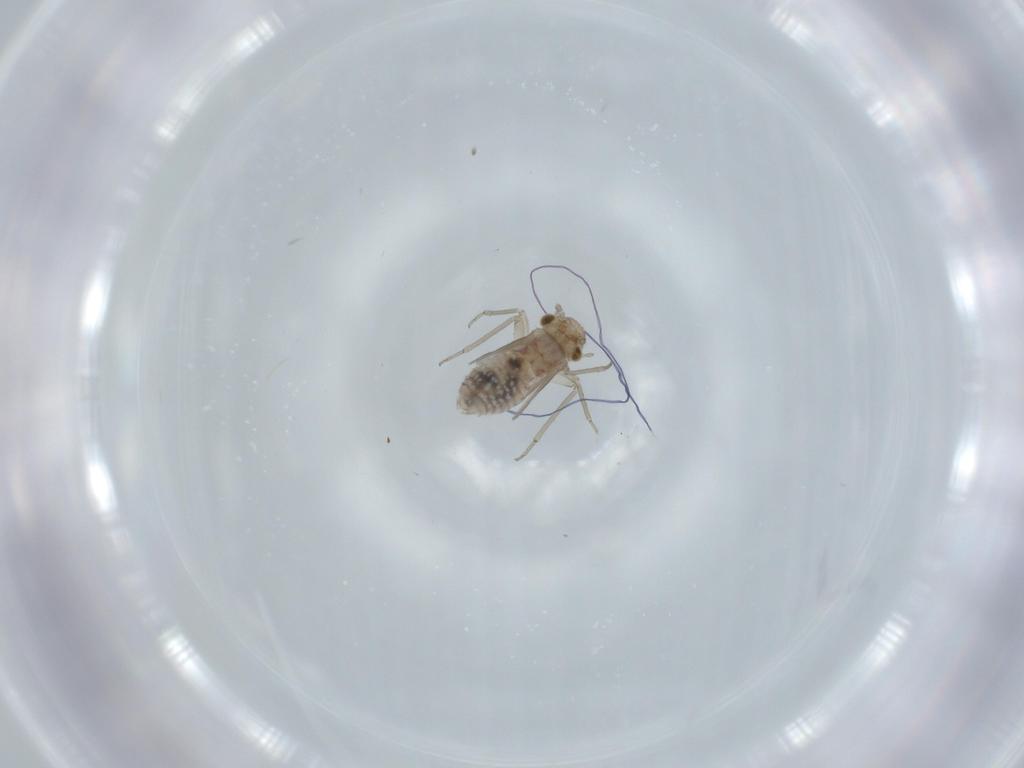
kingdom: Animalia
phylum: Arthropoda
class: Insecta
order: Psocodea
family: Lachesillidae
